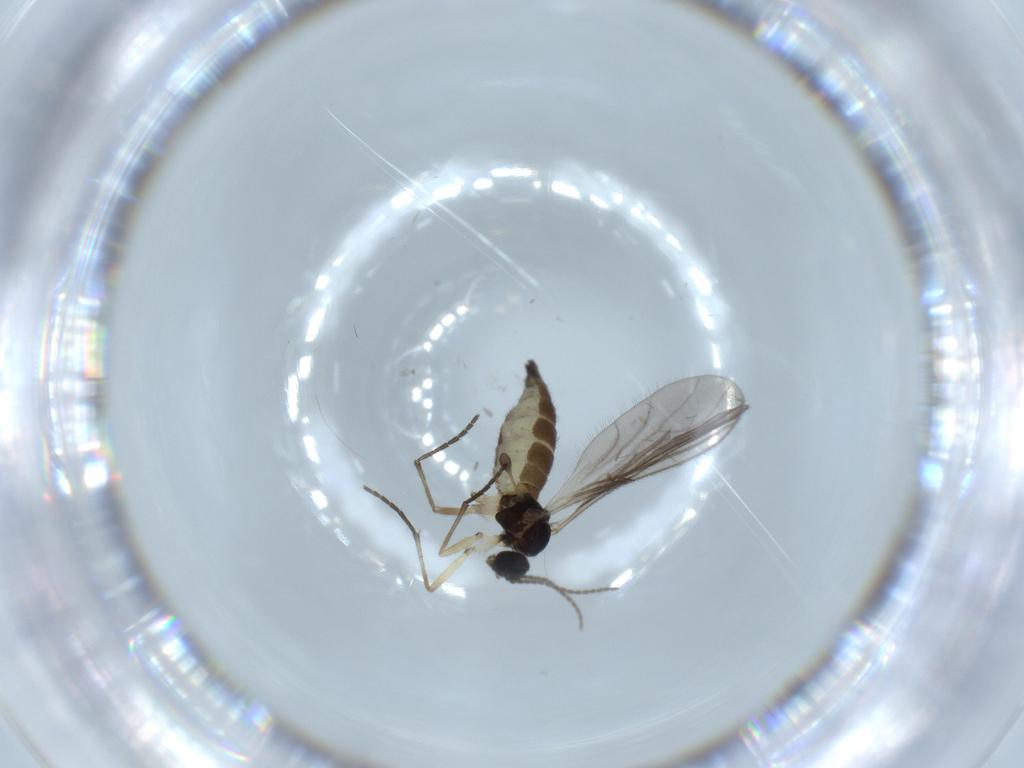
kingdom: Animalia
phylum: Arthropoda
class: Insecta
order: Diptera
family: Sciaridae
